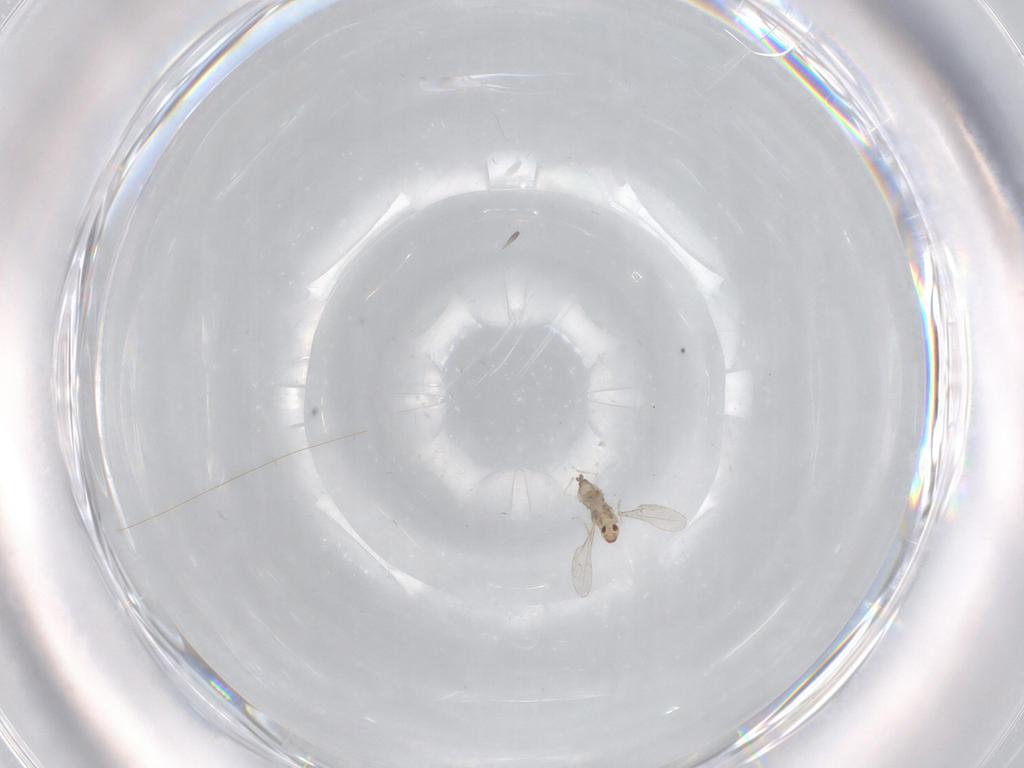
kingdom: Animalia
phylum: Arthropoda
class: Insecta
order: Diptera
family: Cecidomyiidae
